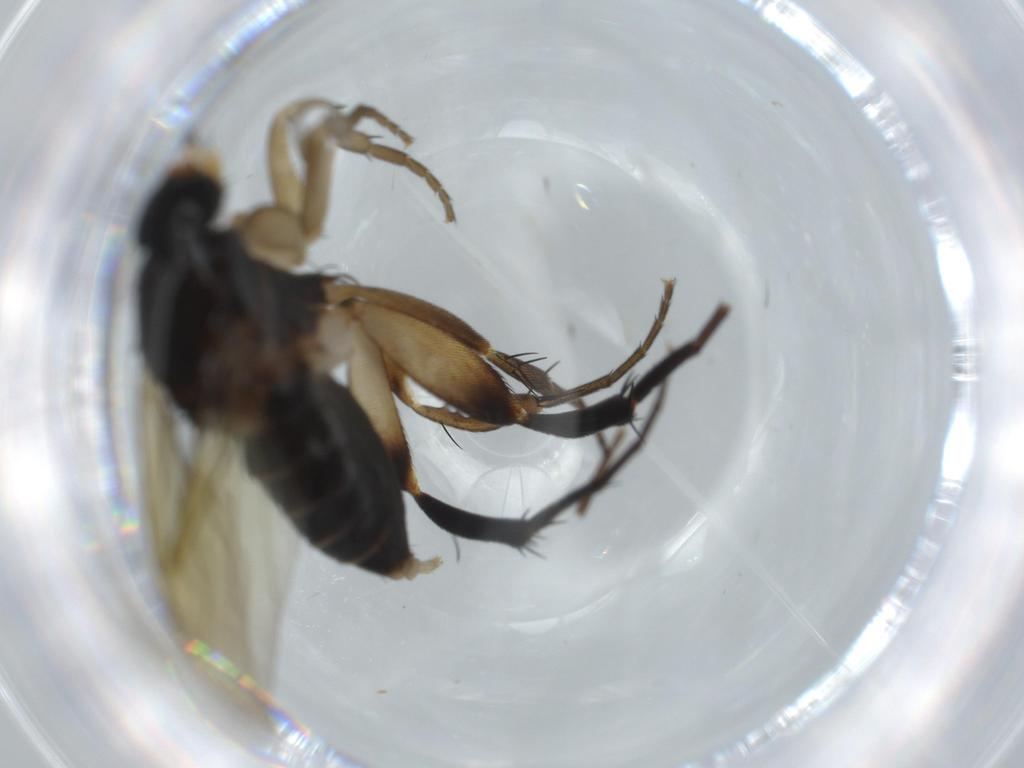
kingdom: Animalia
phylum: Arthropoda
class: Insecta
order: Diptera
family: Phoridae
